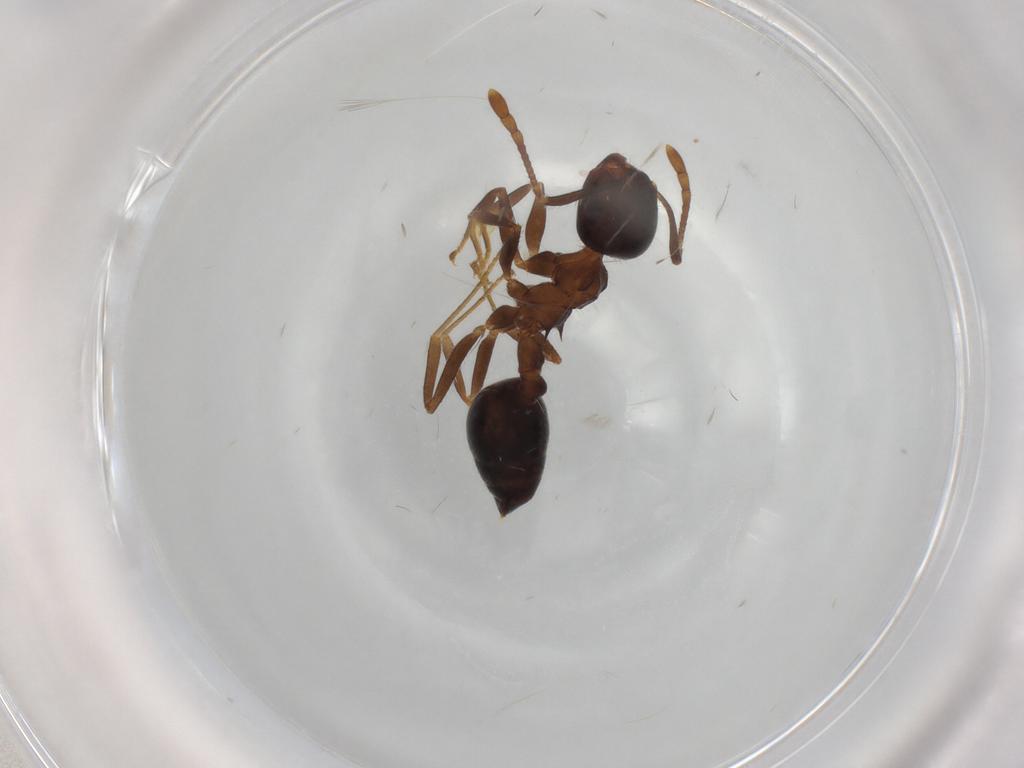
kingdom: Animalia
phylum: Arthropoda
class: Insecta
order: Hymenoptera
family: Formicidae
